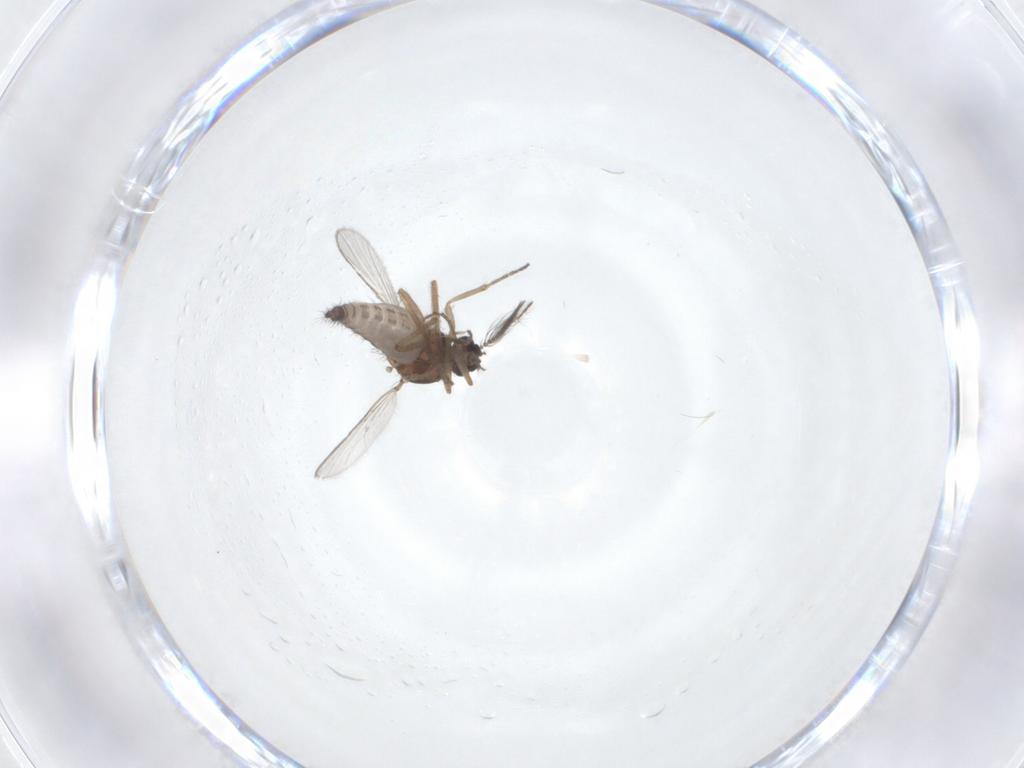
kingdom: Animalia
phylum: Arthropoda
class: Insecta
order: Diptera
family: Ceratopogonidae
